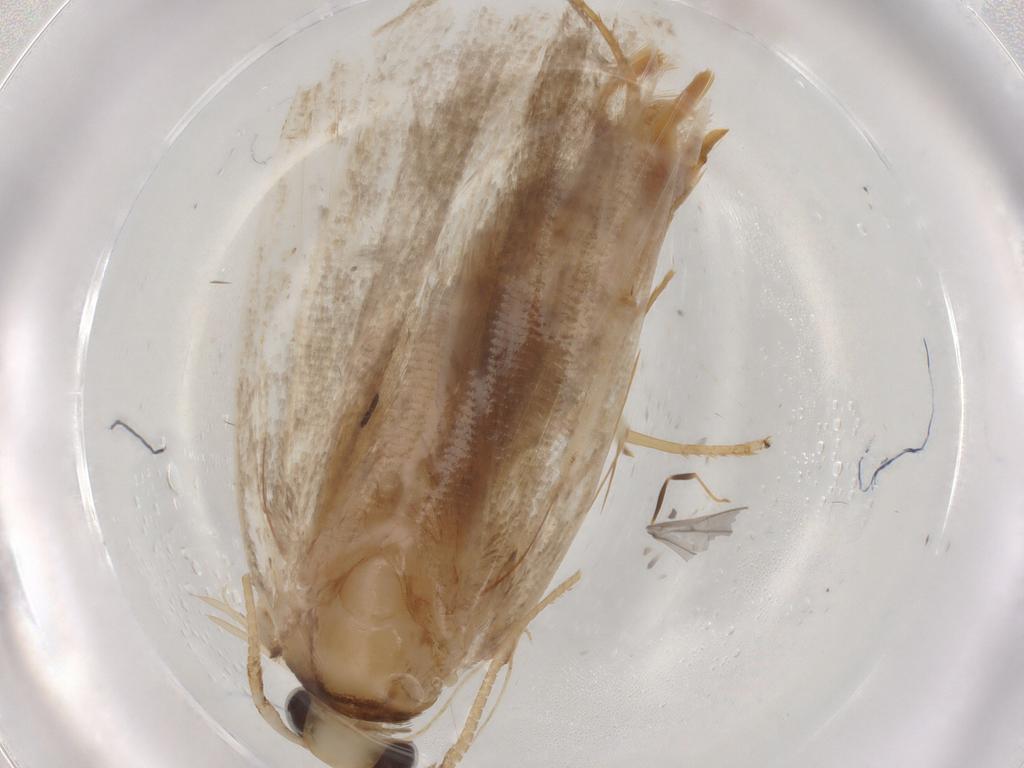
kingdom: Animalia
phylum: Arthropoda
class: Insecta
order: Lepidoptera
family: Autostichidae
